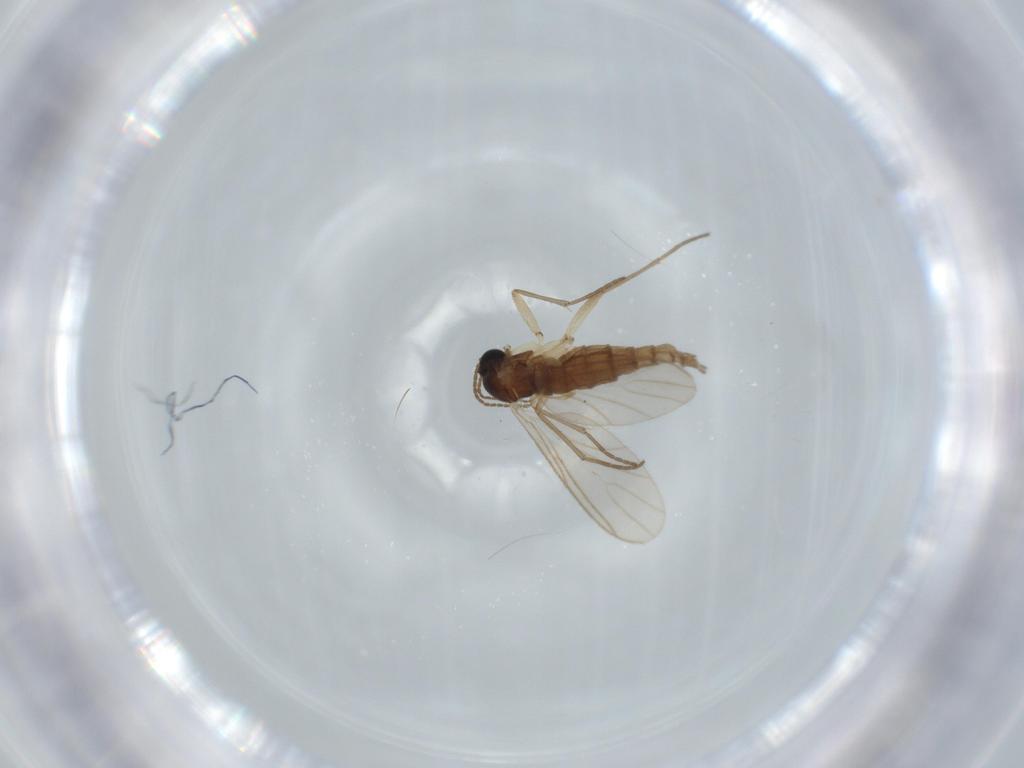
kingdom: Animalia
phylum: Arthropoda
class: Insecta
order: Diptera
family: Sciaridae
